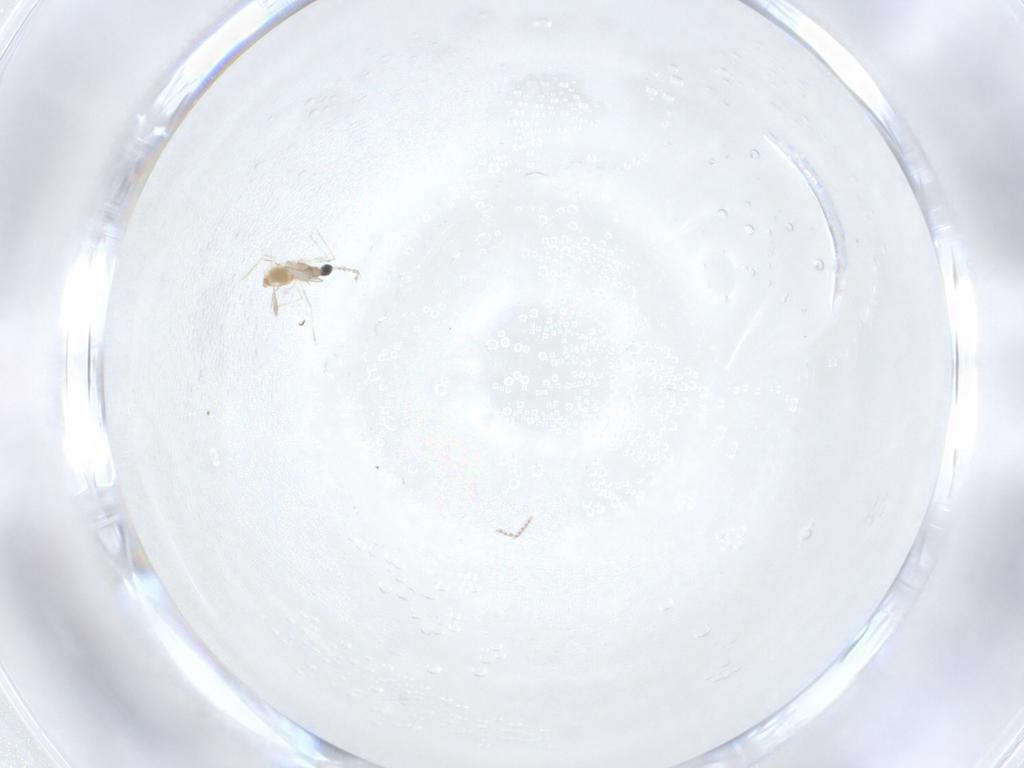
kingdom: Animalia
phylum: Arthropoda
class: Insecta
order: Diptera
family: Cecidomyiidae
